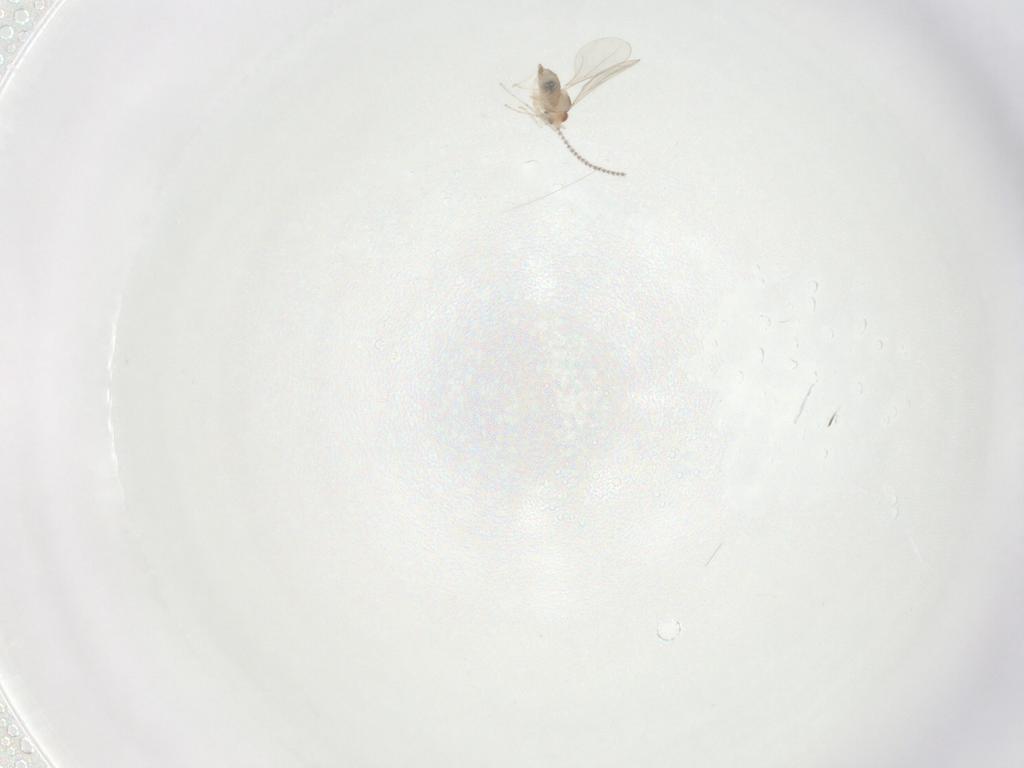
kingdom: Animalia
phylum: Arthropoda
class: Insecta
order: Diptera
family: Cecidomyiidae
